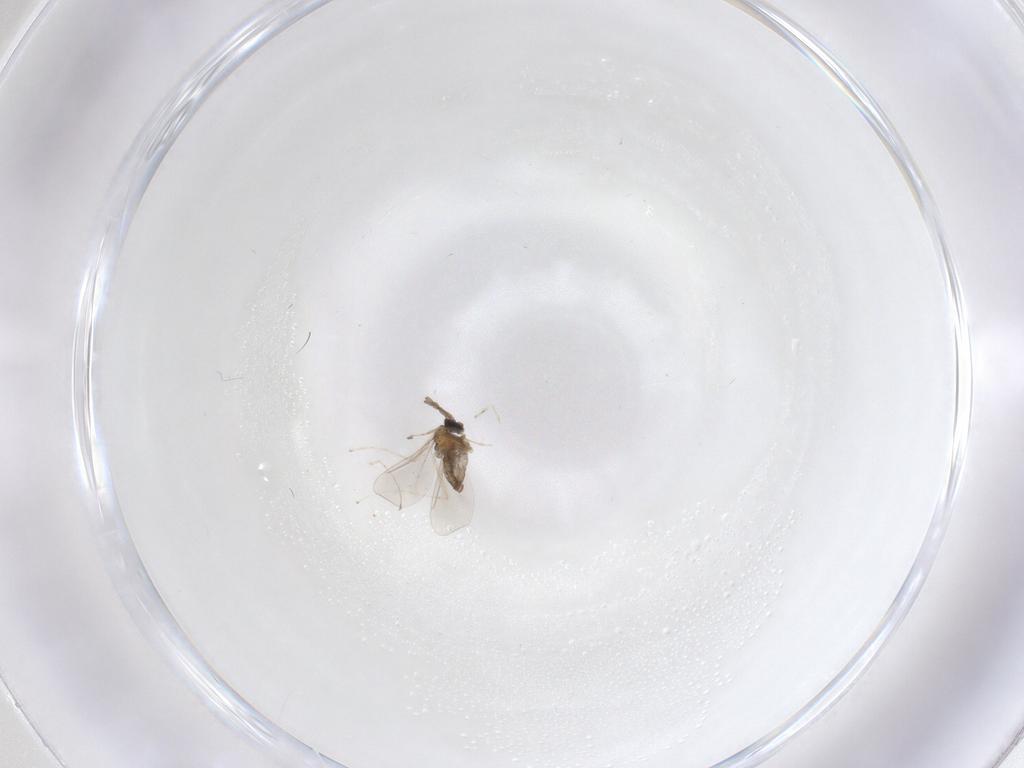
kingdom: Animalia
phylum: Arthropoda
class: Insecta
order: Diptera
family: Cecidomyiidae
